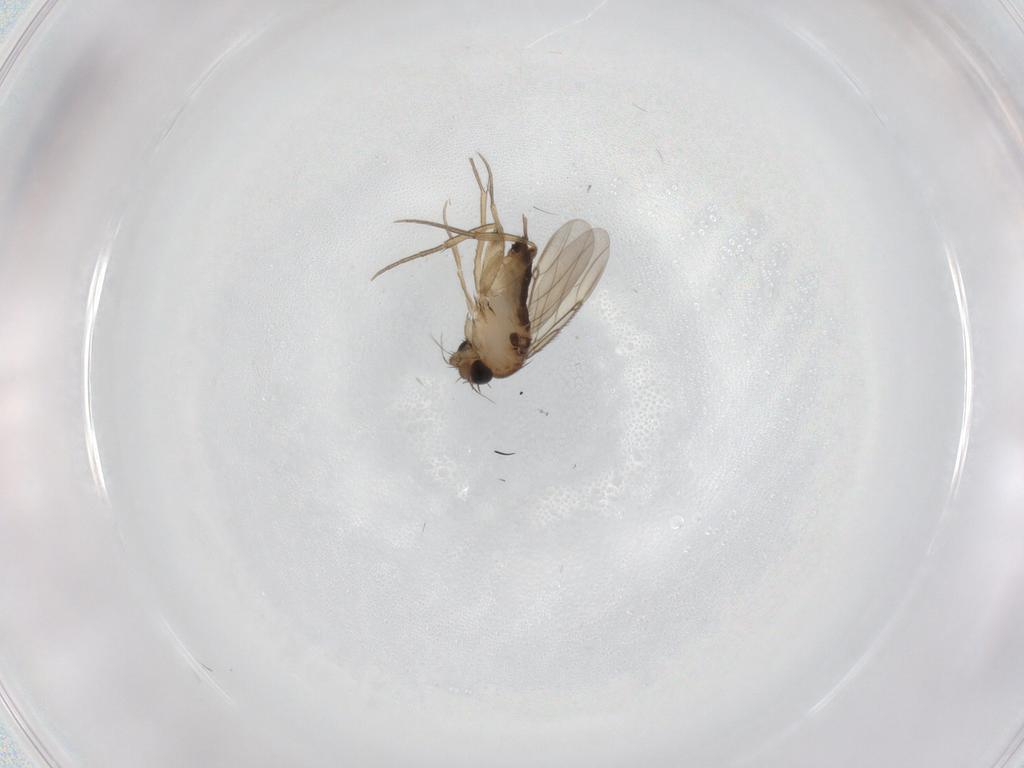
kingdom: Animalia
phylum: Arthropoda
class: Insecta
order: Diptera
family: Phoridae
